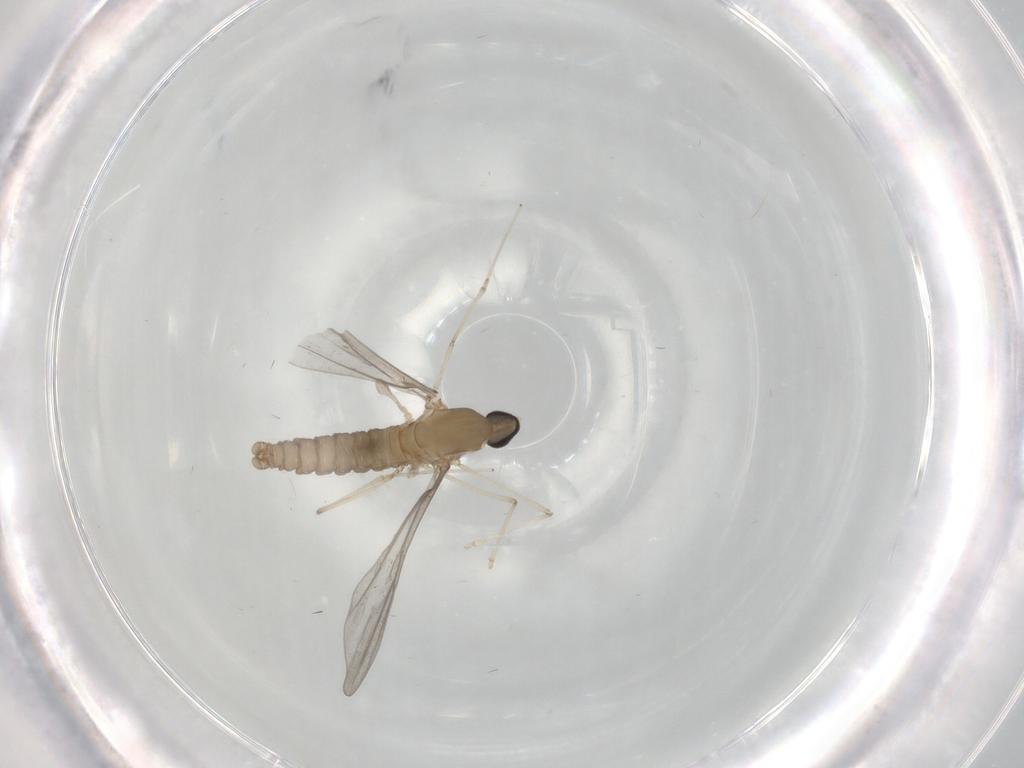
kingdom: Animalia
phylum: Arthropoda
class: Insecta
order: Diptera
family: Cecidomyiidae
